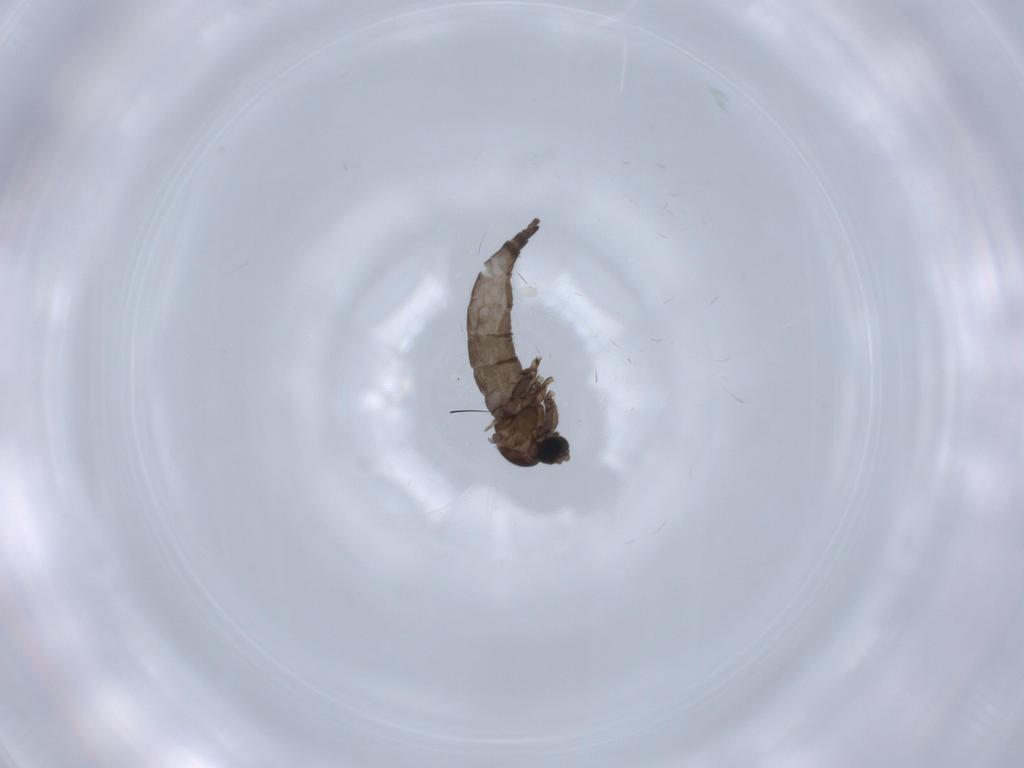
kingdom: Animalia
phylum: Arthropoda
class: Insecta
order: Diptera
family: Sciaridae
